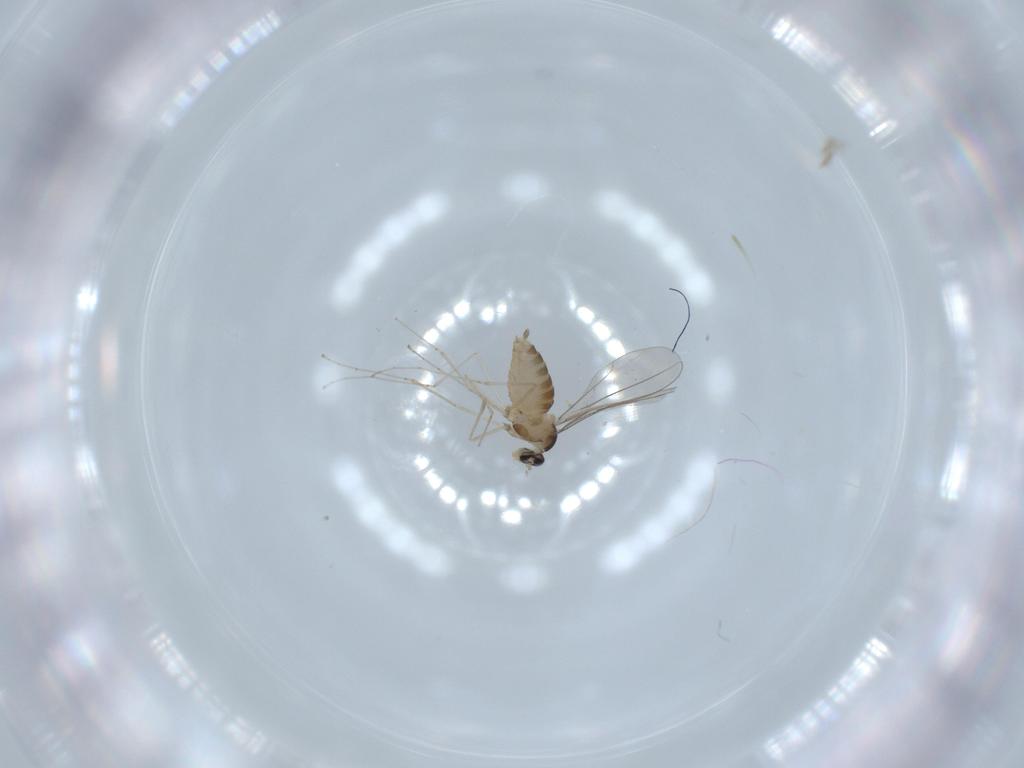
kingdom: Animalia
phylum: Arthropoda
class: Insecta
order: Diptera
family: Cecidomyiidae
